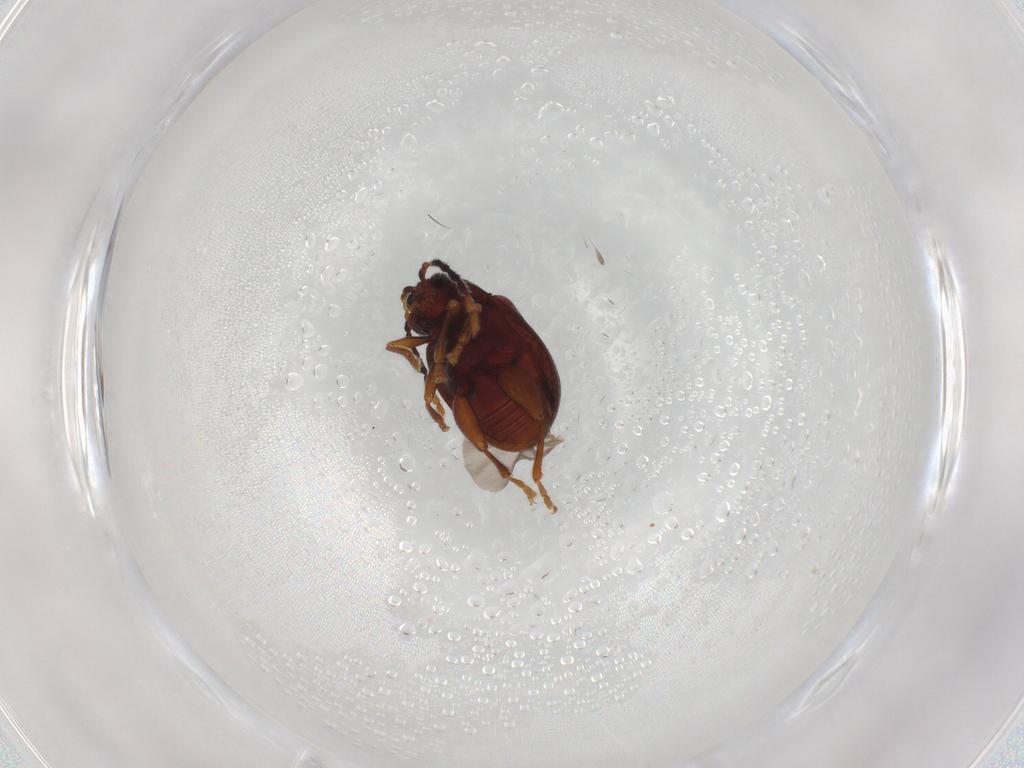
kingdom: Animalia
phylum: Arthropoda
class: Insecta
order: Coleoptera
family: Chrysomelidae
